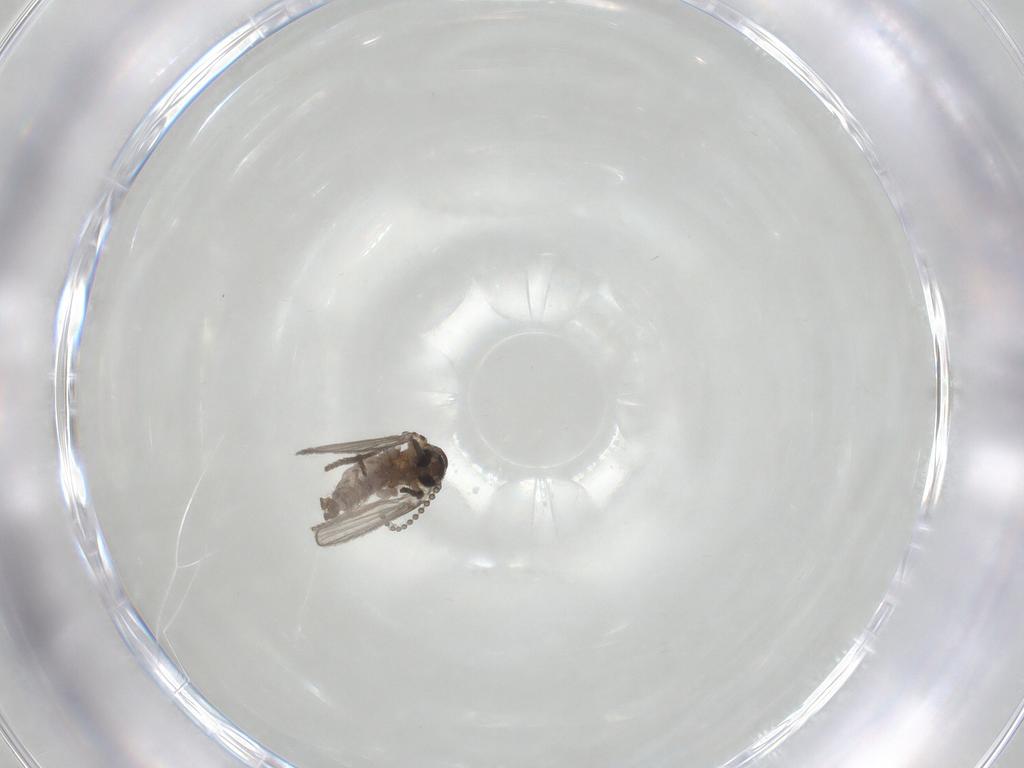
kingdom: Animalia
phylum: Arthropoda
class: Insecta
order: Diptera
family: Psychodidae
